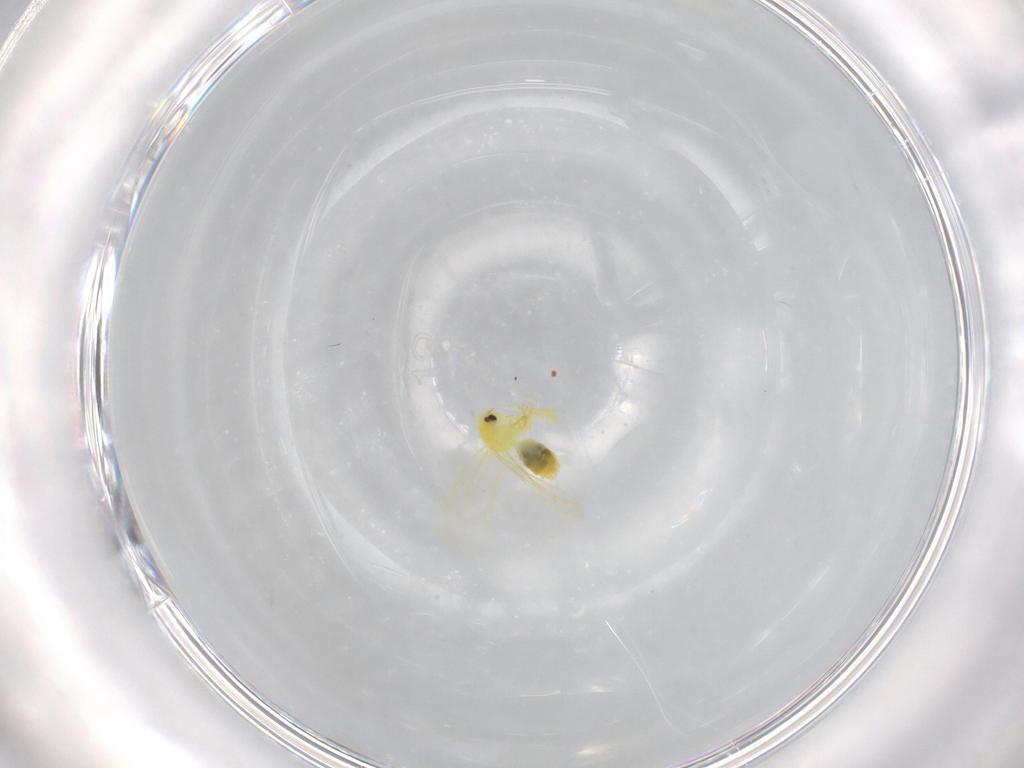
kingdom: Animalia
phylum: Arthropoda
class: Insecta
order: Hemiptera
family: Aleyrodidae
